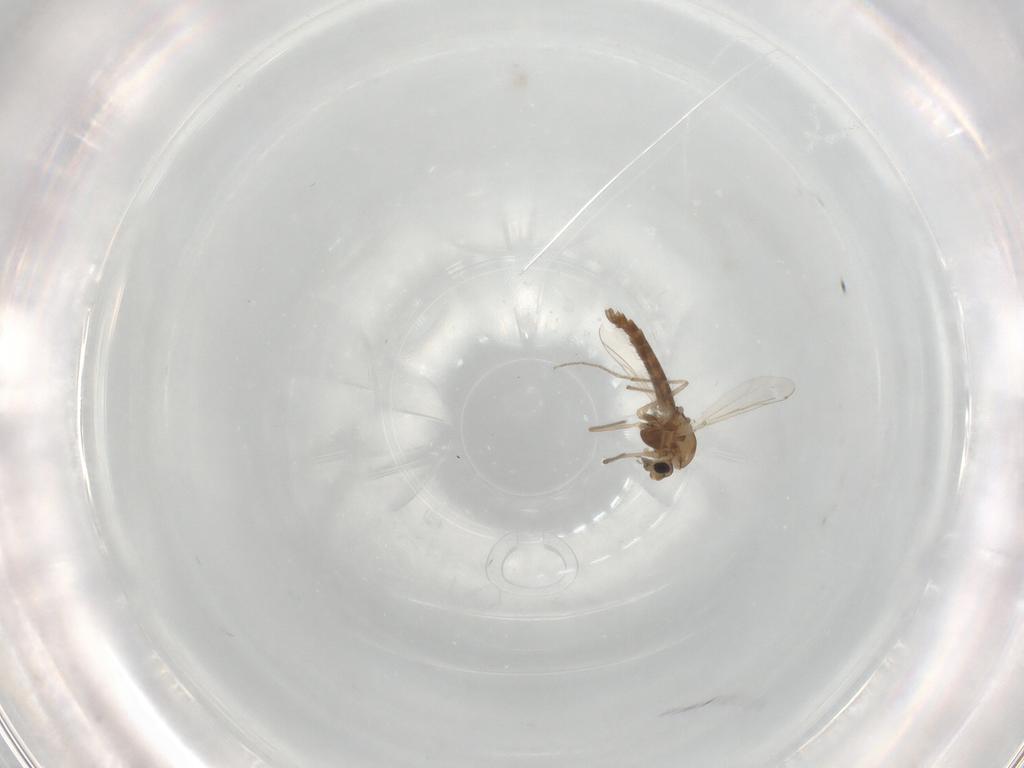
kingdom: Animalia
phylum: Arthropoda
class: Insecta
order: Diptera
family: Chironomidae
